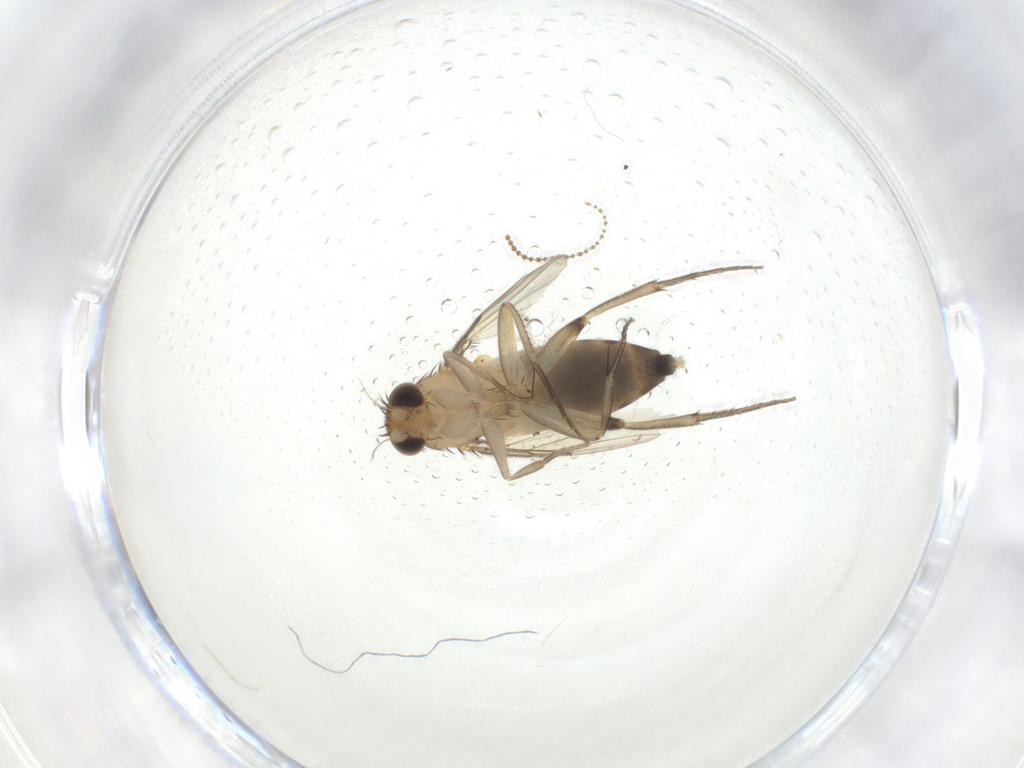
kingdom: Animalia
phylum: Arthropoda
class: Insecta
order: Diptera
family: Phoridae
